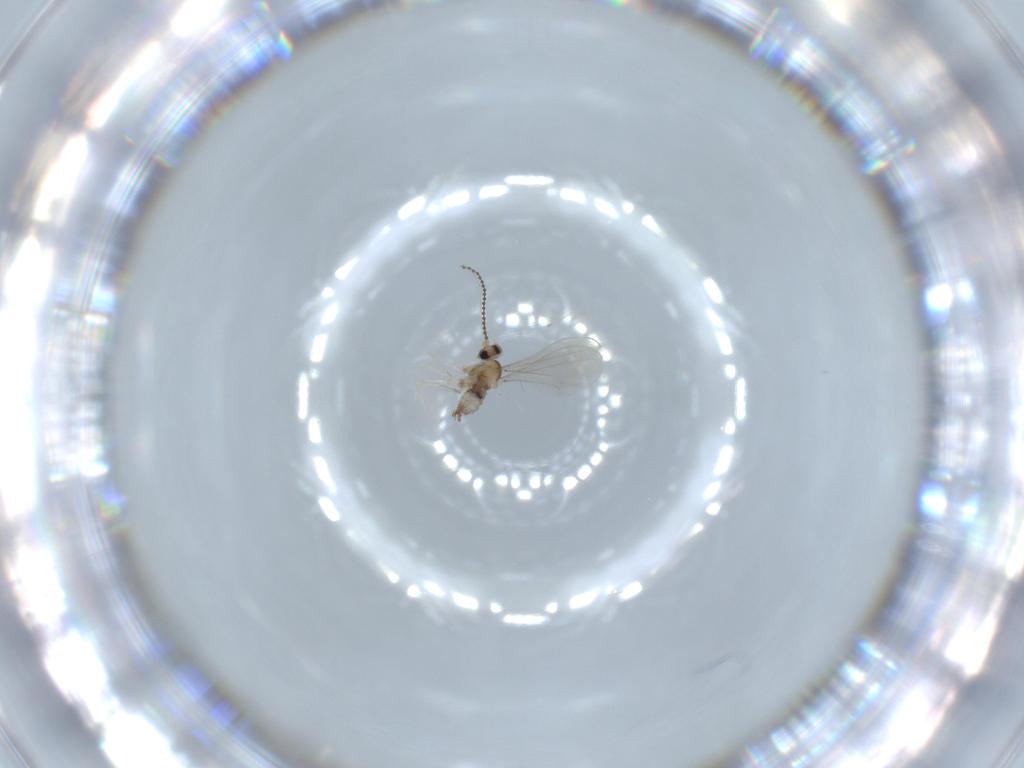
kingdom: Animalia
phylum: Arthropoda
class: Insecta
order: Diptera
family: Cecidomyiidae
